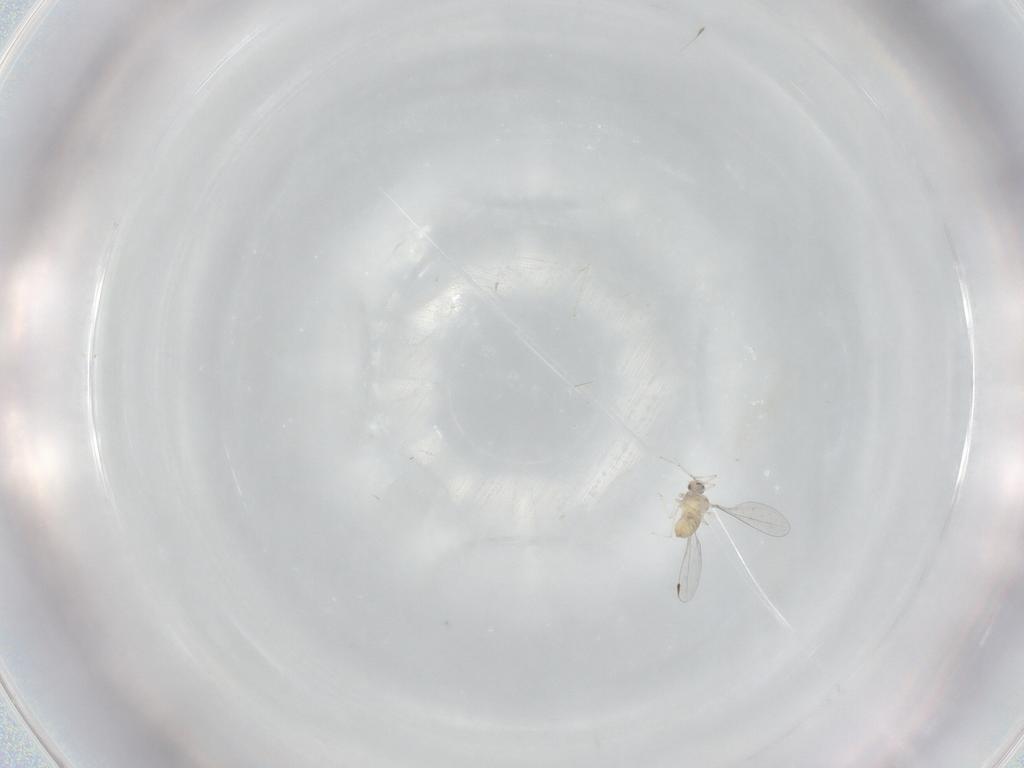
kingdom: Animalia
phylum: Arthropoda
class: Insecta
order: Diptera
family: Cecidomyiidae
